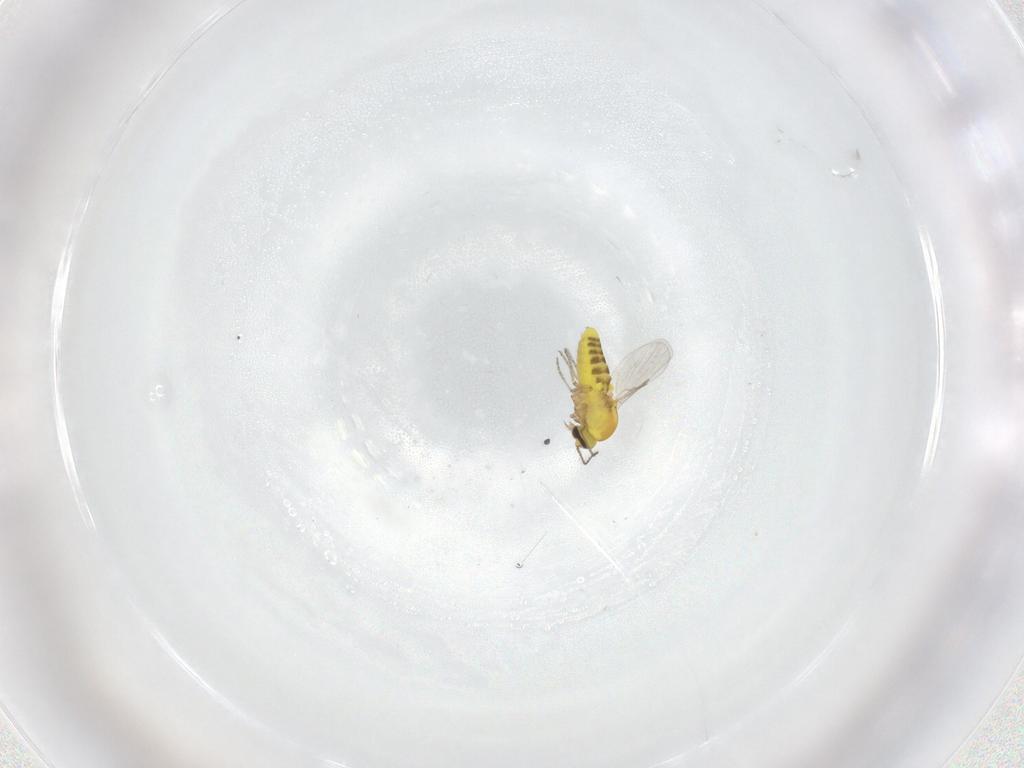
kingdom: Animalia
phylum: Arthropoda
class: Insecta
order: Diptera
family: Ceratopogonidae
